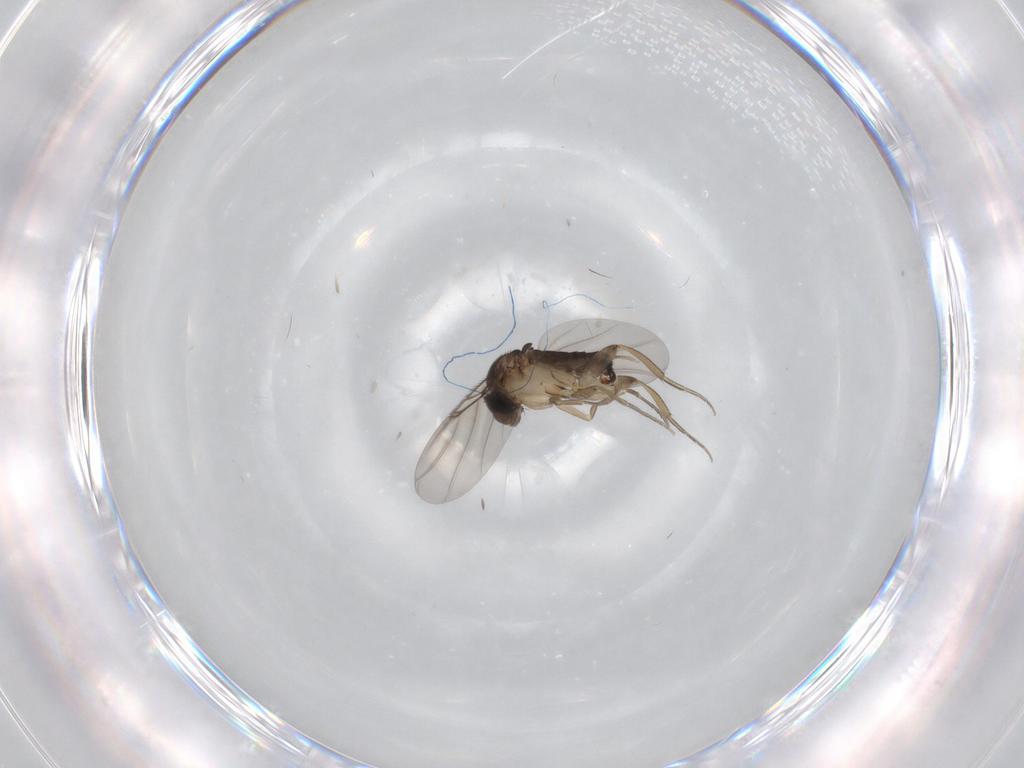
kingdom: Animalia
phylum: Arthropoda
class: Insecta
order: Diptera
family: Phoridae
